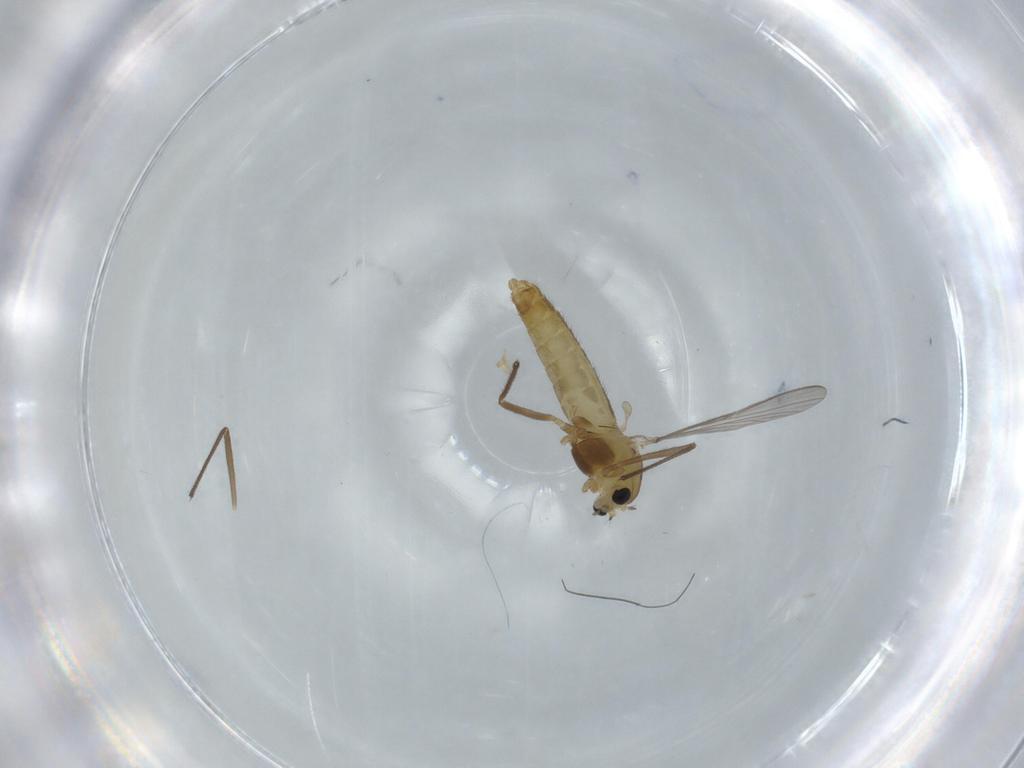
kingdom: Animalia
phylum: Arthropoda
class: Insecta
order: Diptera
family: Chironomidae
